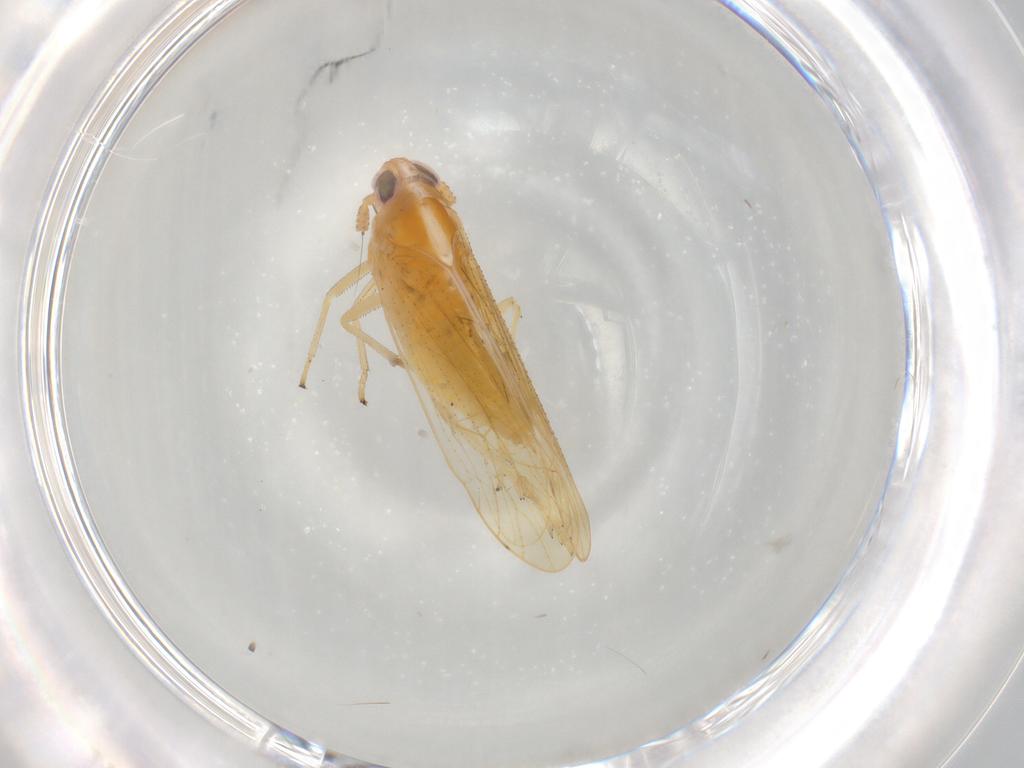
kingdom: Animalia
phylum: Arthropoda
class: Insecta
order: Hemiptera
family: Delphacidae
